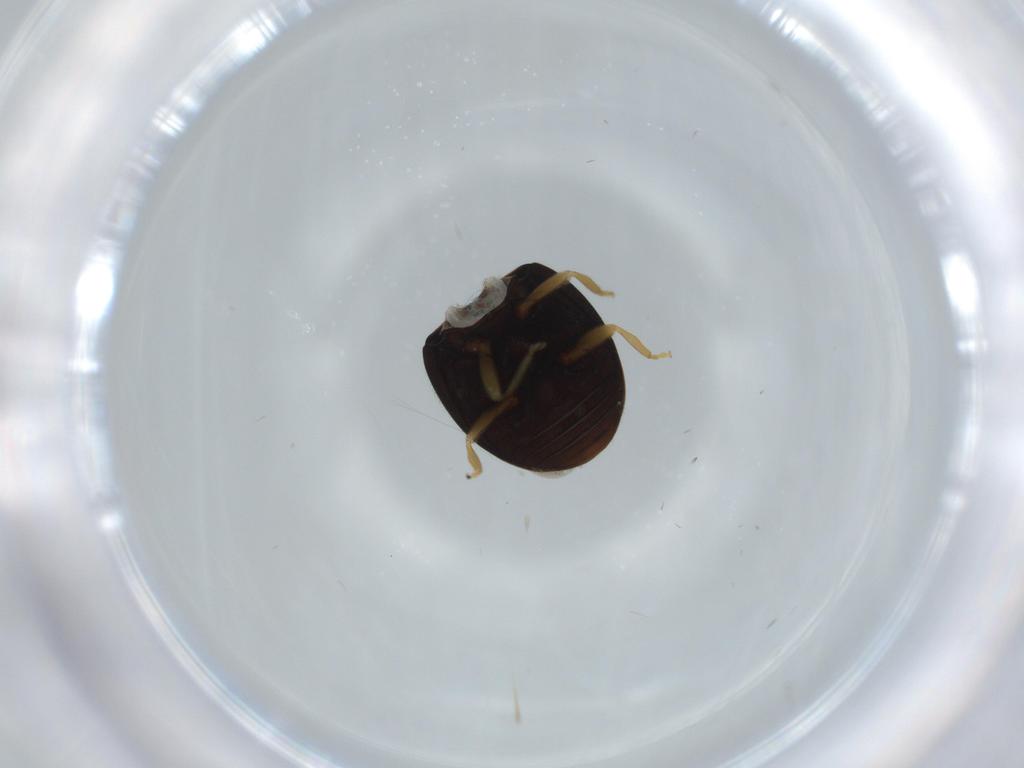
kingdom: Animalia
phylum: Arthropoda
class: Insecta
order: Coleoptera
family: Coccinellidae
